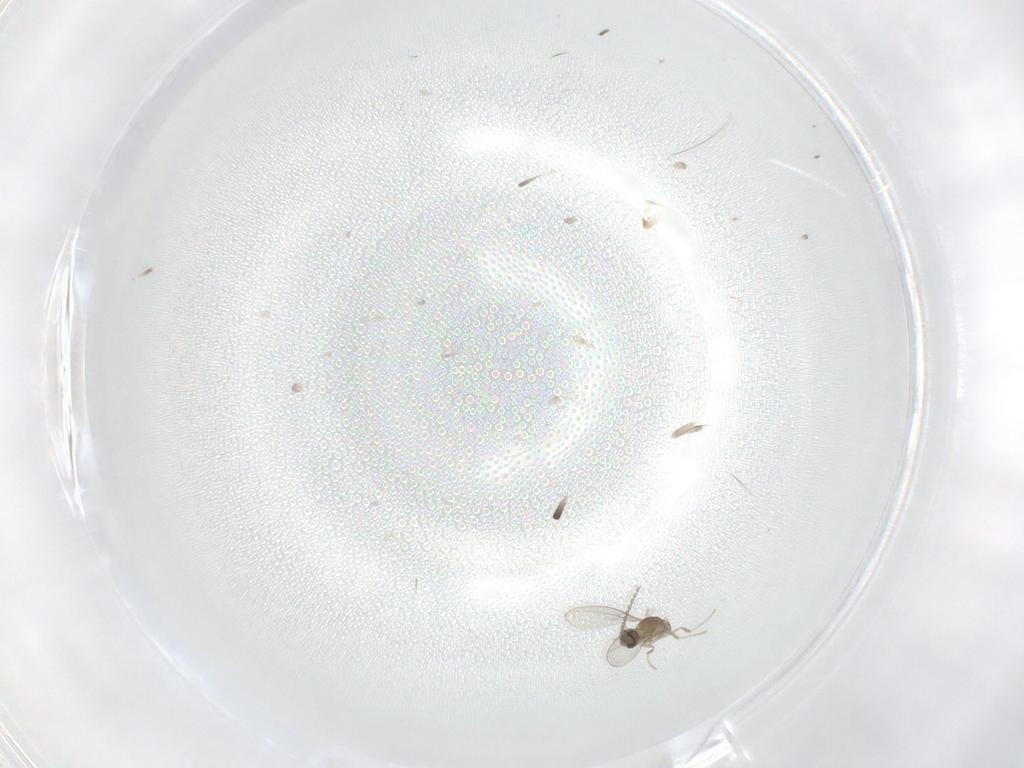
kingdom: Animalia
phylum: Arthropoda
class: Insecta
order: Diptera
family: Cecidomyiidae
